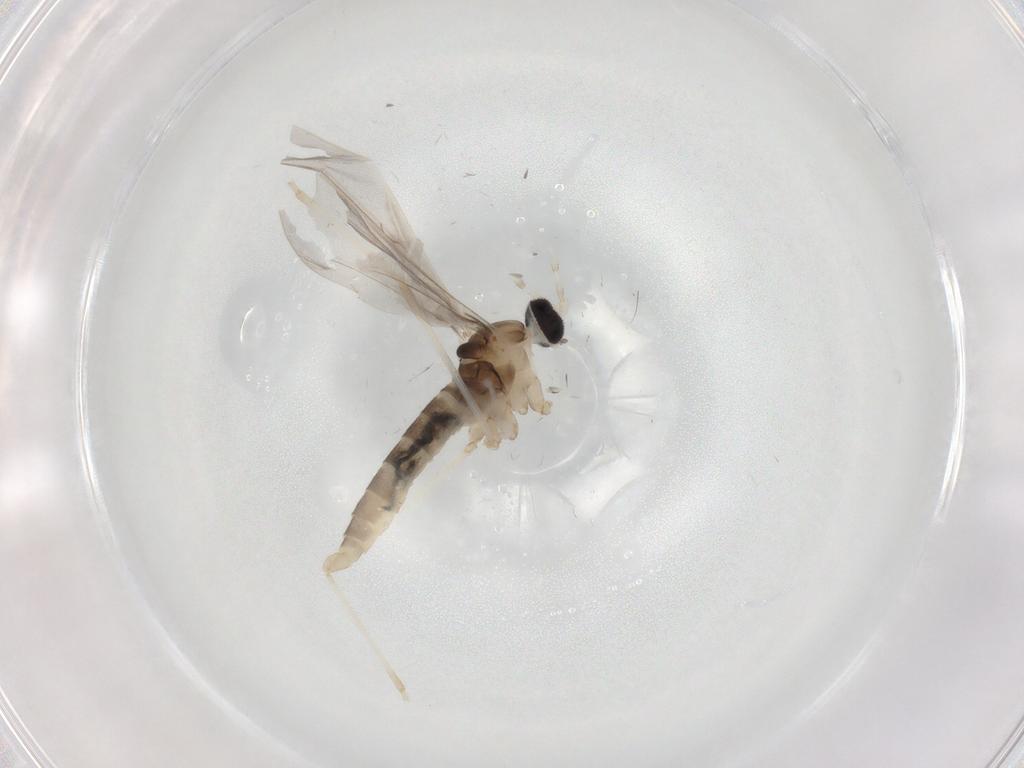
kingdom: Animalia
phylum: Arthropoda
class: Insecta
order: Diptera
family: Cecidomyiidae
